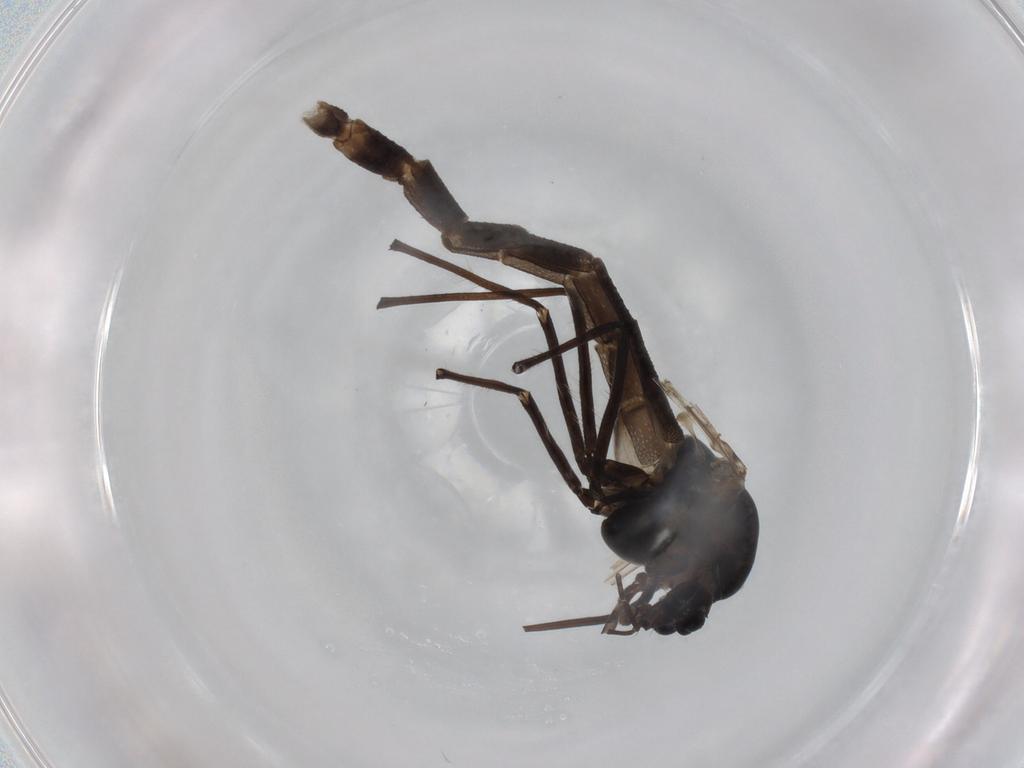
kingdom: Animalia
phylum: Arthropoda
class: Insecta
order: Diptera
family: Chironomidae
